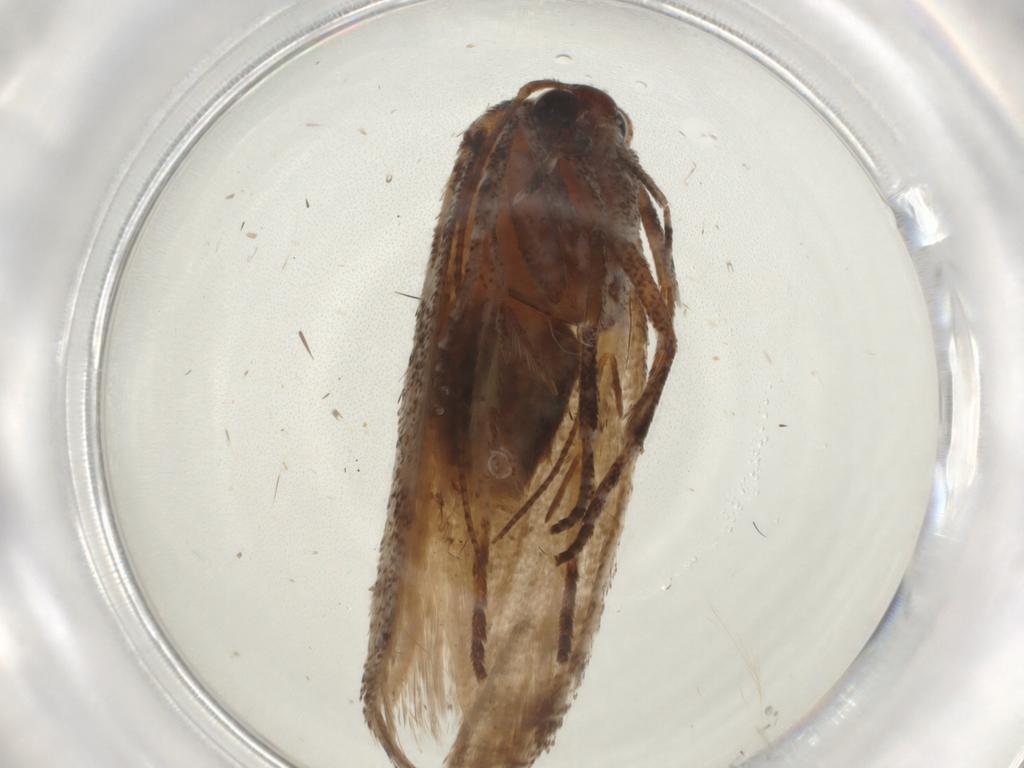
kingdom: Animalia
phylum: Arthropoda
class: Insecta
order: Lepidoptera
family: Cosmopterigidae
